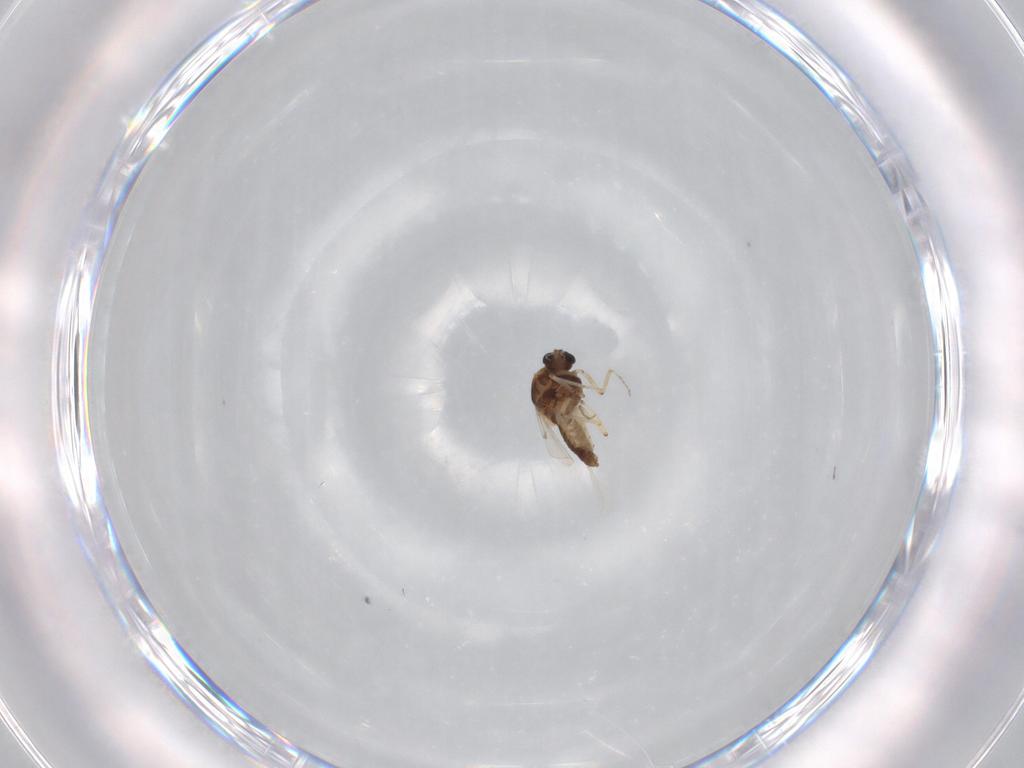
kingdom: Animalia
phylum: Arthropoda
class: Insecta
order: Diptera
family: Ceratopogonidae
